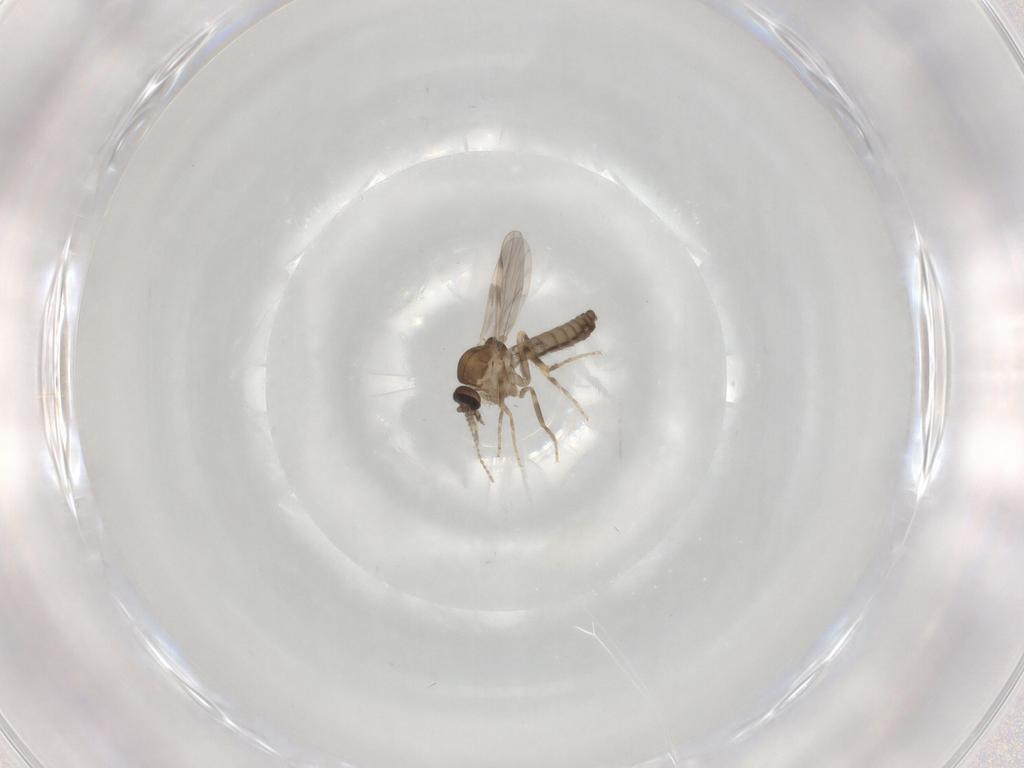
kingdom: Animalia
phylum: Arthropoda
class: Insecta
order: Diptera
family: Ceratopogonidae
